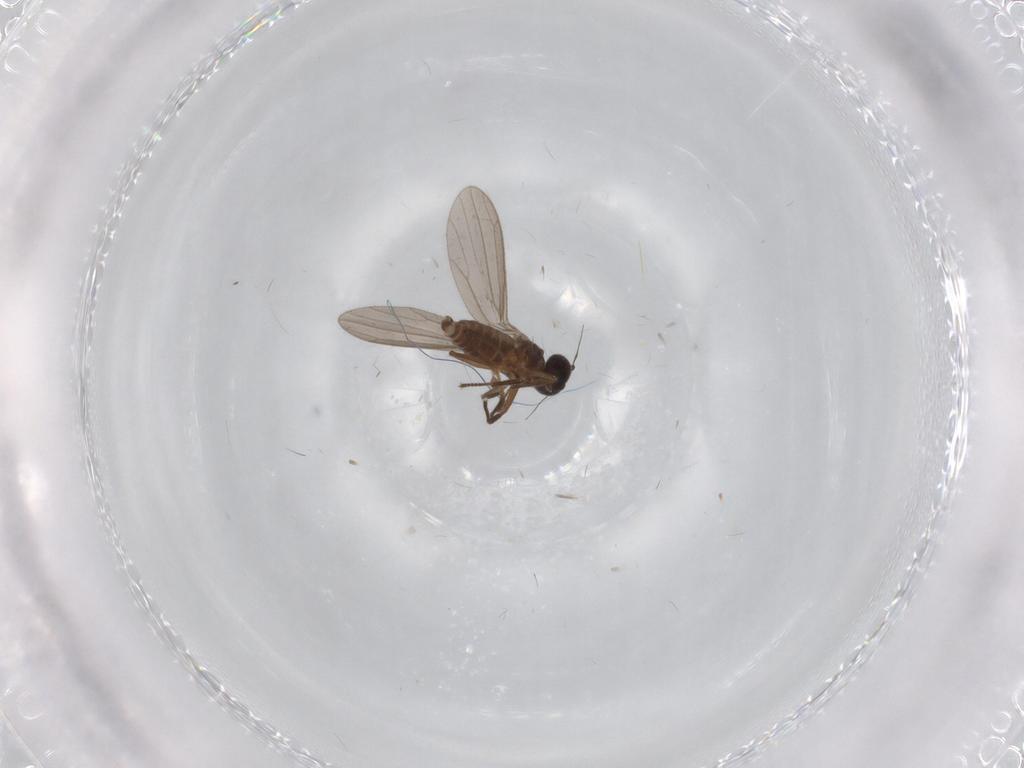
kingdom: Animalia
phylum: Arthropoda
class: Insecta
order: Diptera
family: Empididae
